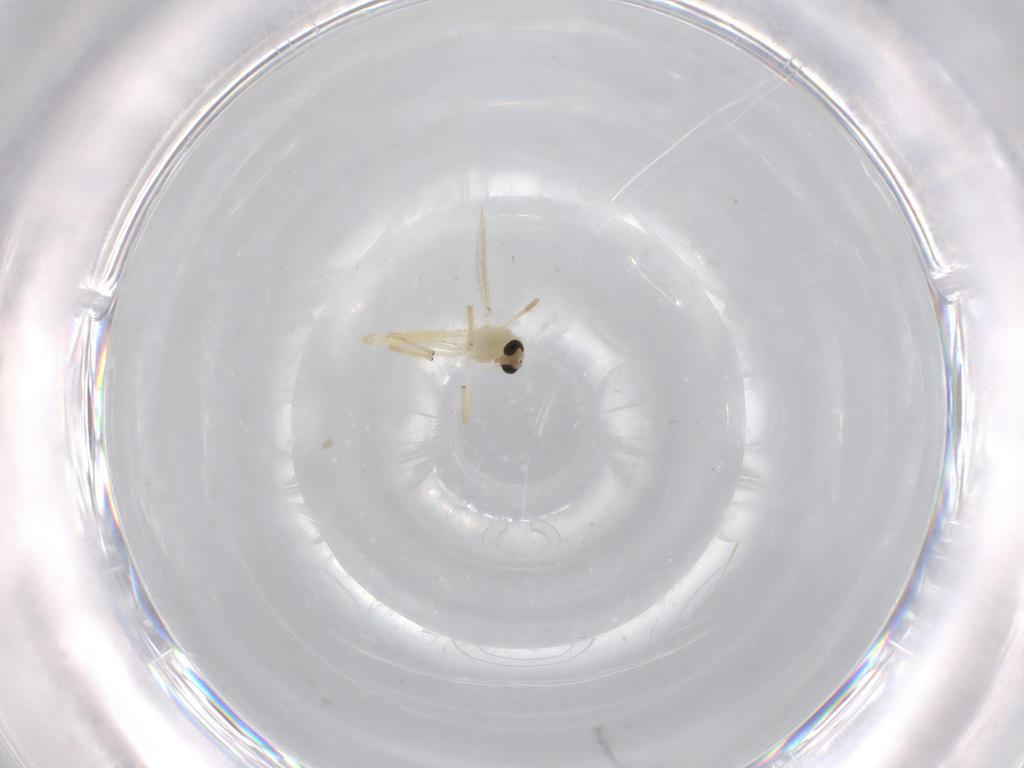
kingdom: Animalia
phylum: Arthropoda
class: Insecta
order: Diptera
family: Chironomidae
